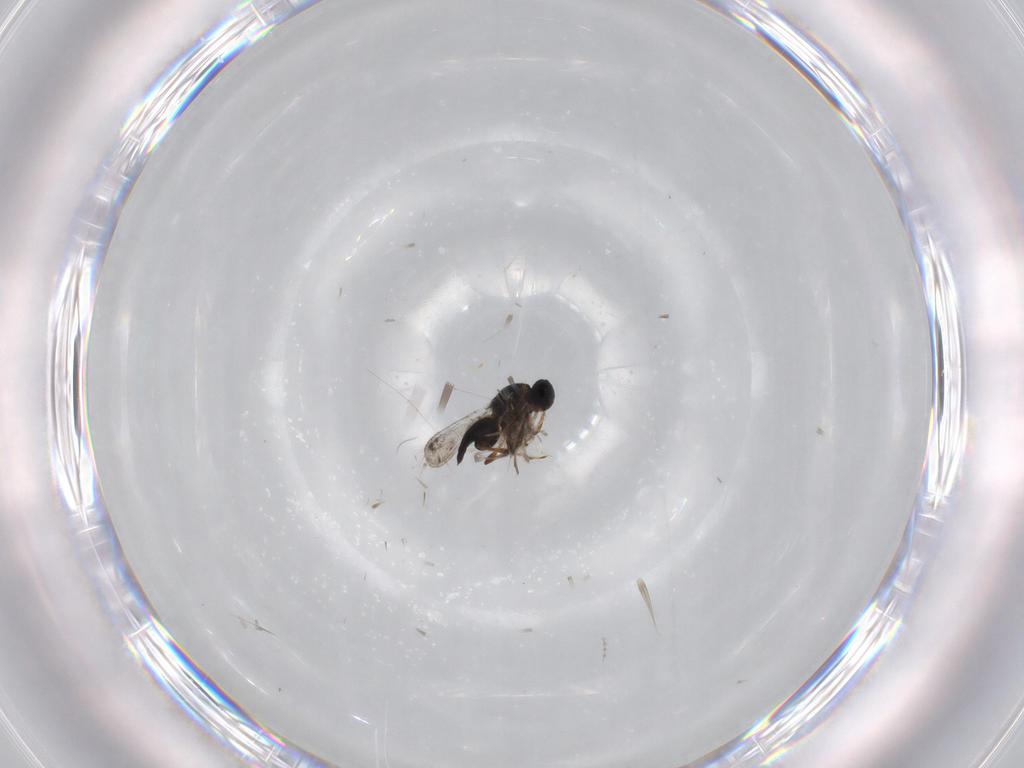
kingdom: Animalia
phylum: Arthropoda
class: Insecta
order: Hymenoptera
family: Platygastridae
